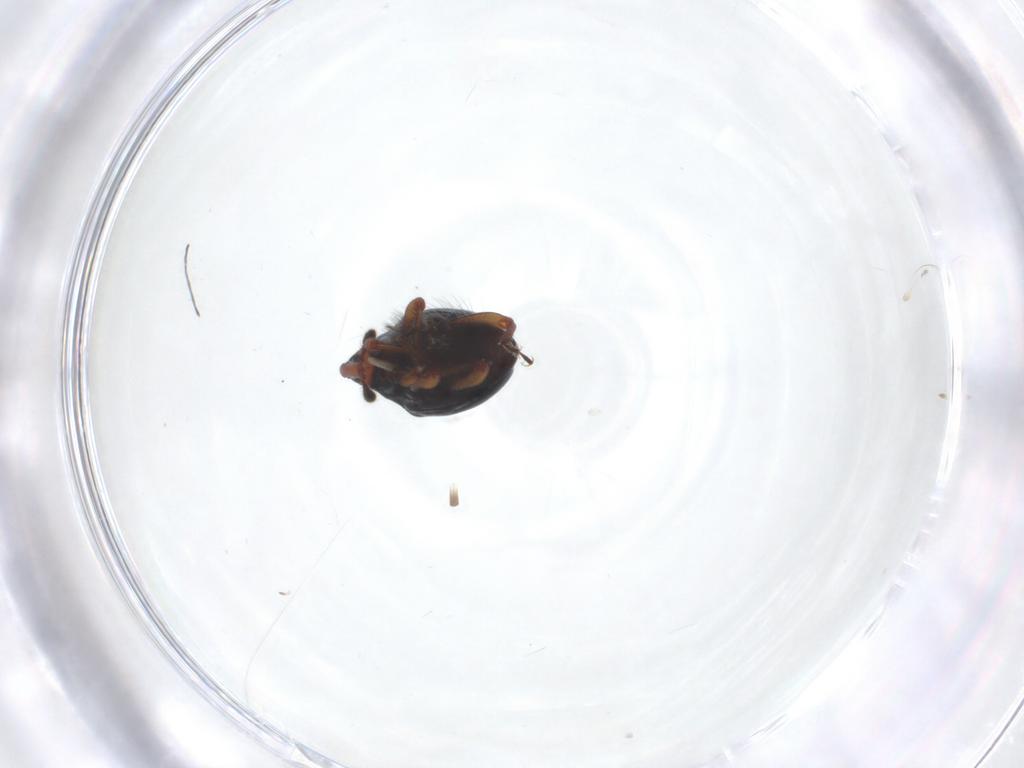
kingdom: Animalia
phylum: Arthropoda
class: Insecta
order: Coleoptera
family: Curculionidae
